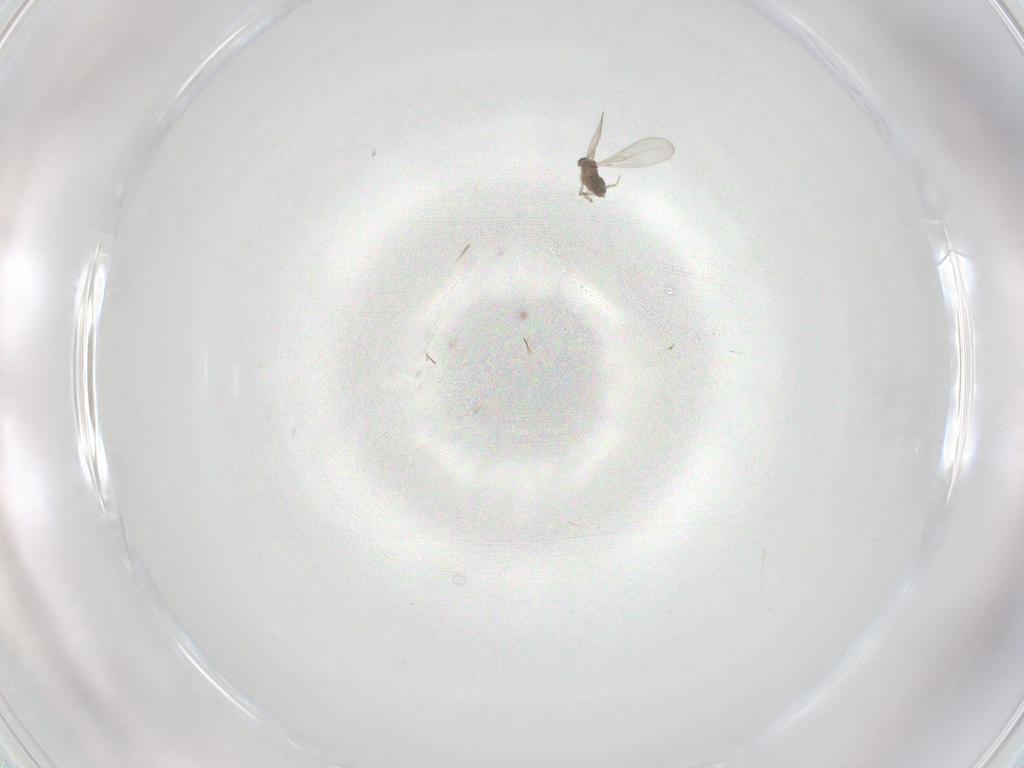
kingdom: Animalia
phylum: Arthropoda
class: Insecta
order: Diptera
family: Cecidomyiidae
